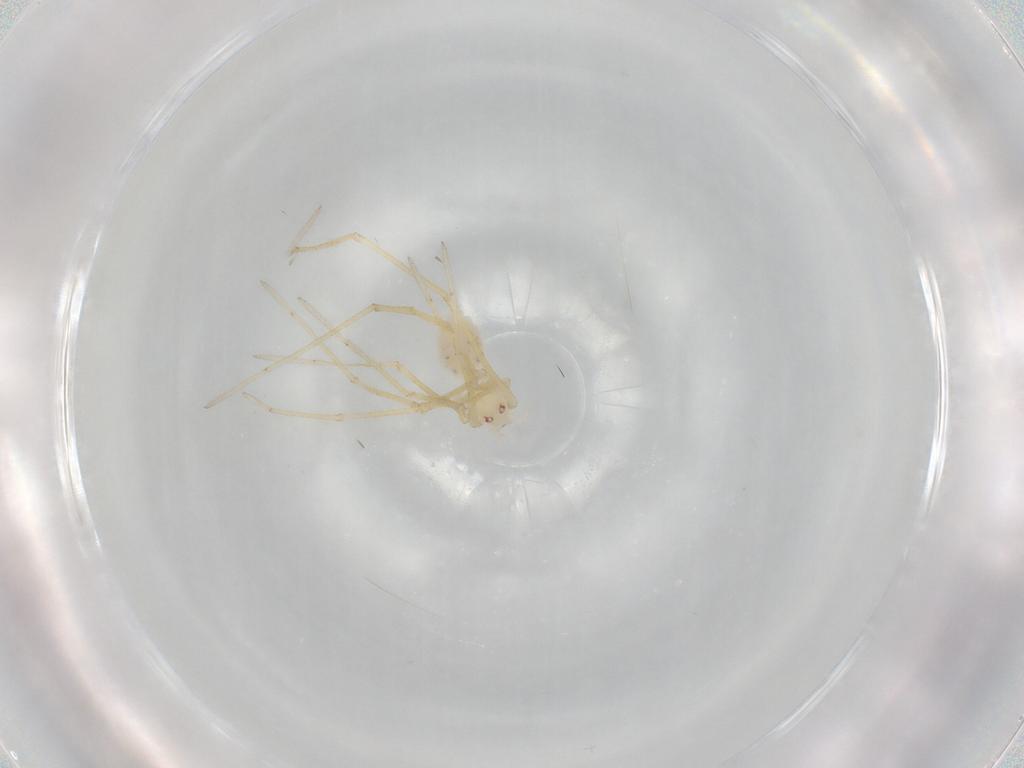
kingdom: Animalia
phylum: Arthropoda
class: Arachnida
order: Araneae
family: Pholcidae
